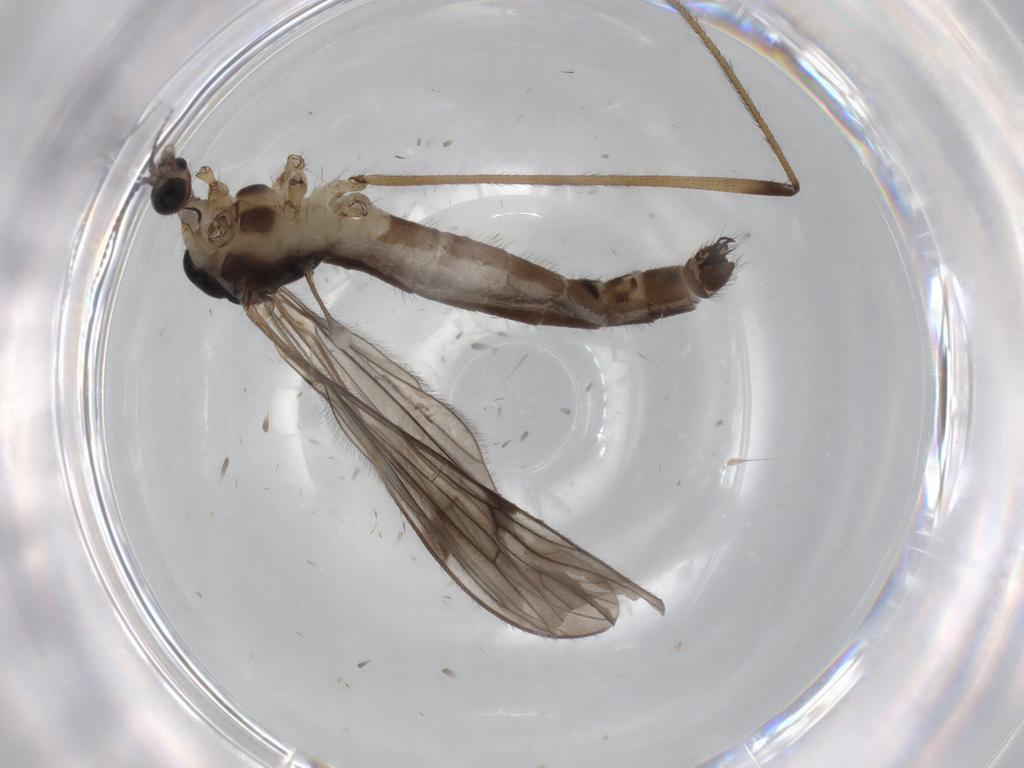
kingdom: Animalia
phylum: Arthropoda
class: Insecta
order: Diptera
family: Limoniidae
